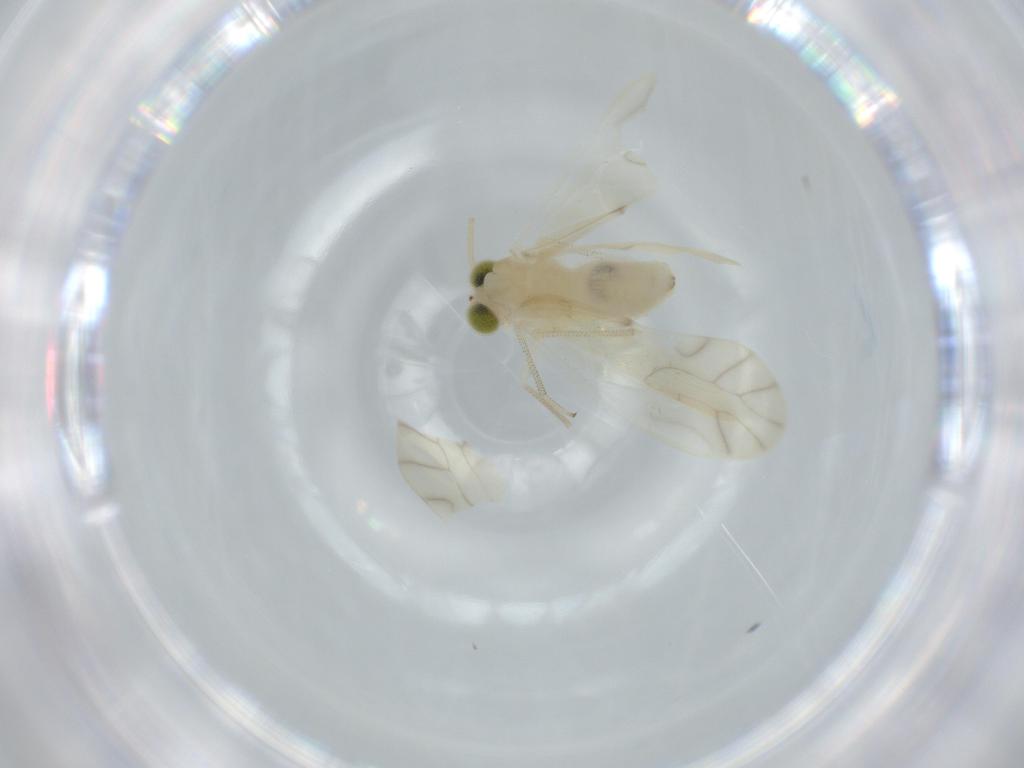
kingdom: Animalia
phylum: Arthropoda
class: Insecta
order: Psocodea
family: Caeciliusidae
